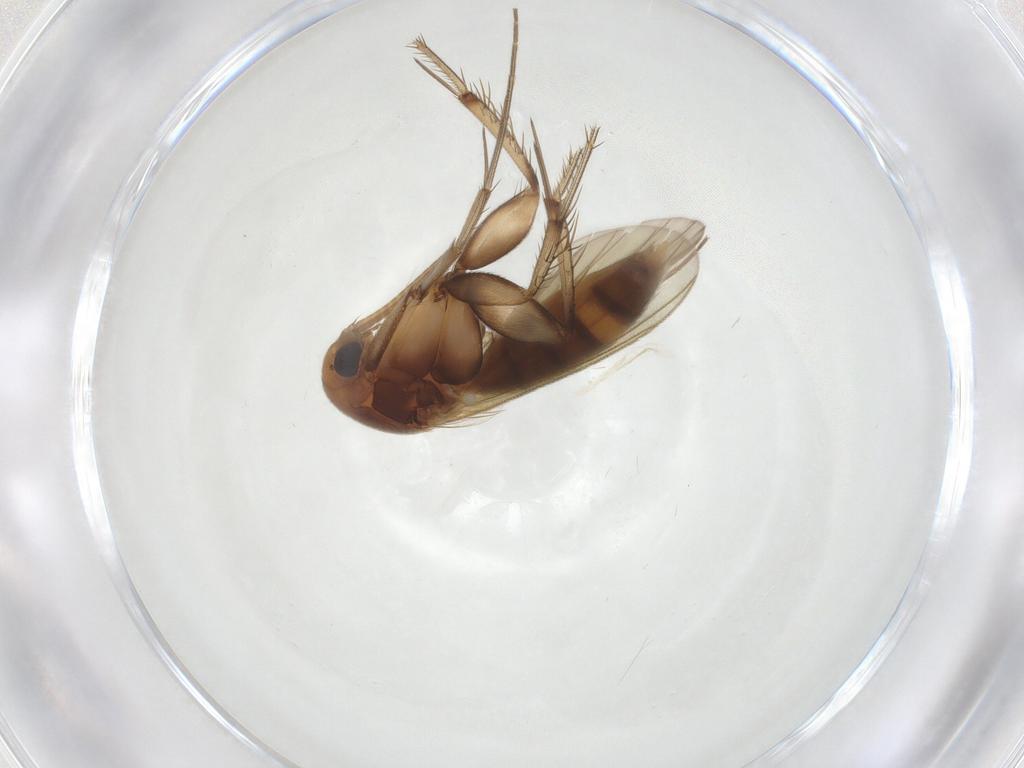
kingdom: Animalia
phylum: Arthropoda
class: Insecta
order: Diptera
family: Mycetophilidae
